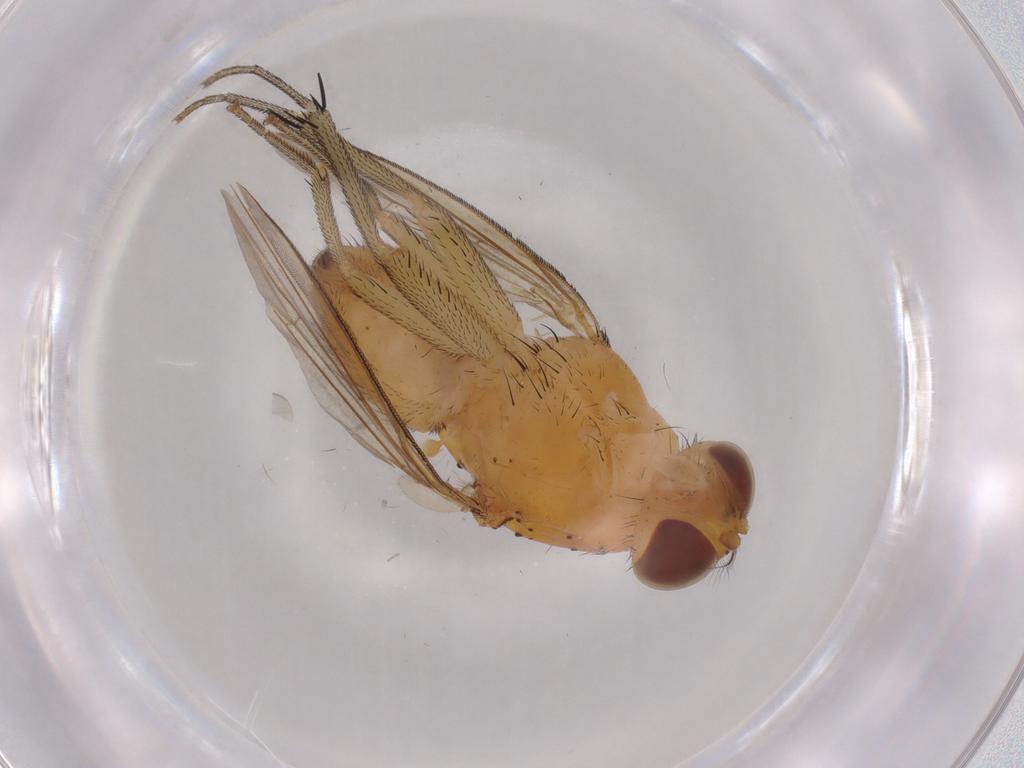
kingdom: Animalia
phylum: Arthropoda
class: Insecta
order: Diptera
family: Lauxaniidae
